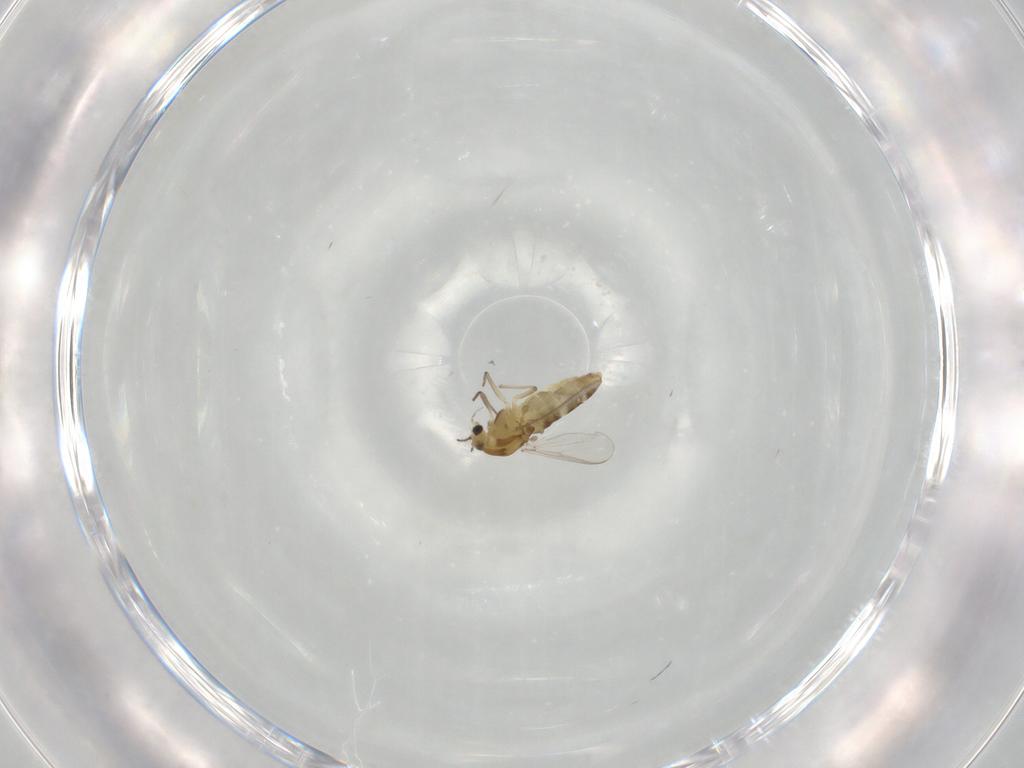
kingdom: Animalia
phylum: Arthropoda
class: Insecta
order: Diptera
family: Chironomidae
